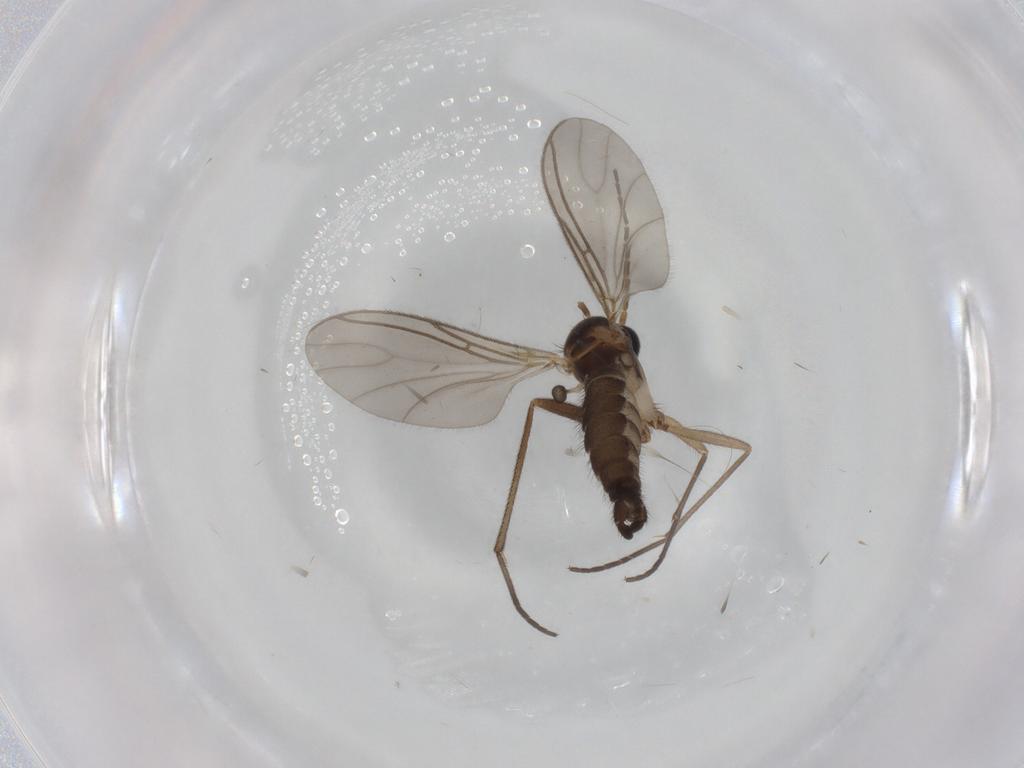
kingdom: Animalia
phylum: Arthropoda
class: Insecta
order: Diptera
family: Sciaridae
